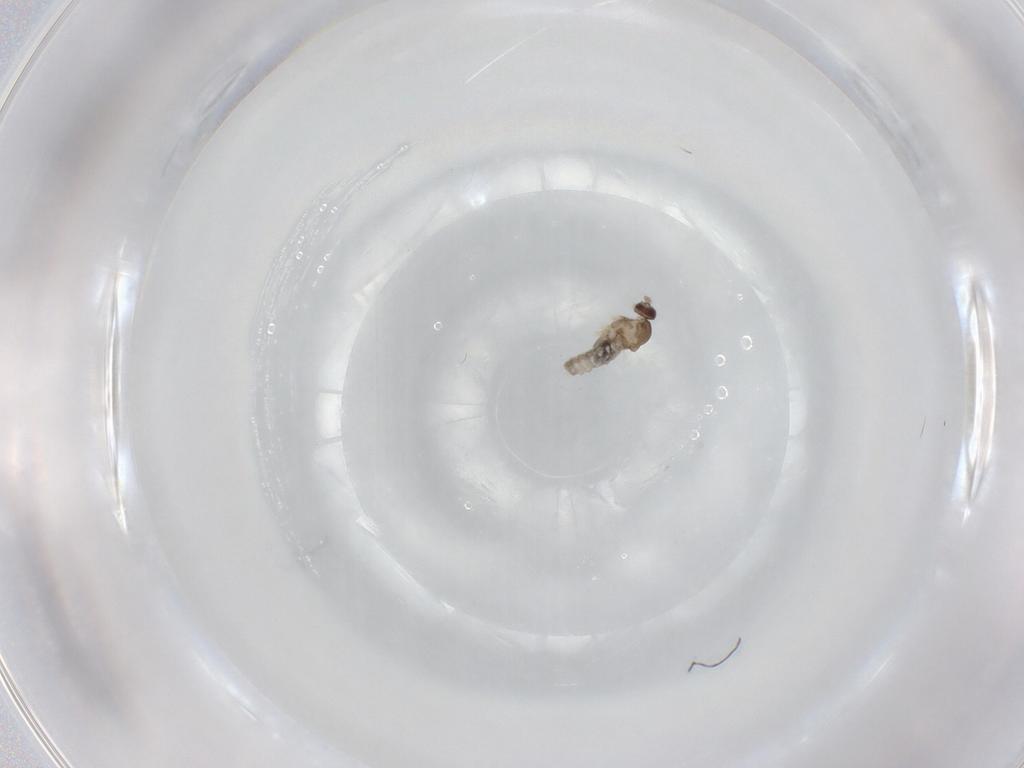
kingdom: Animalia
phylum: Arthropoda
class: Insecta
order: Diptera
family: Cecidomyiidae
